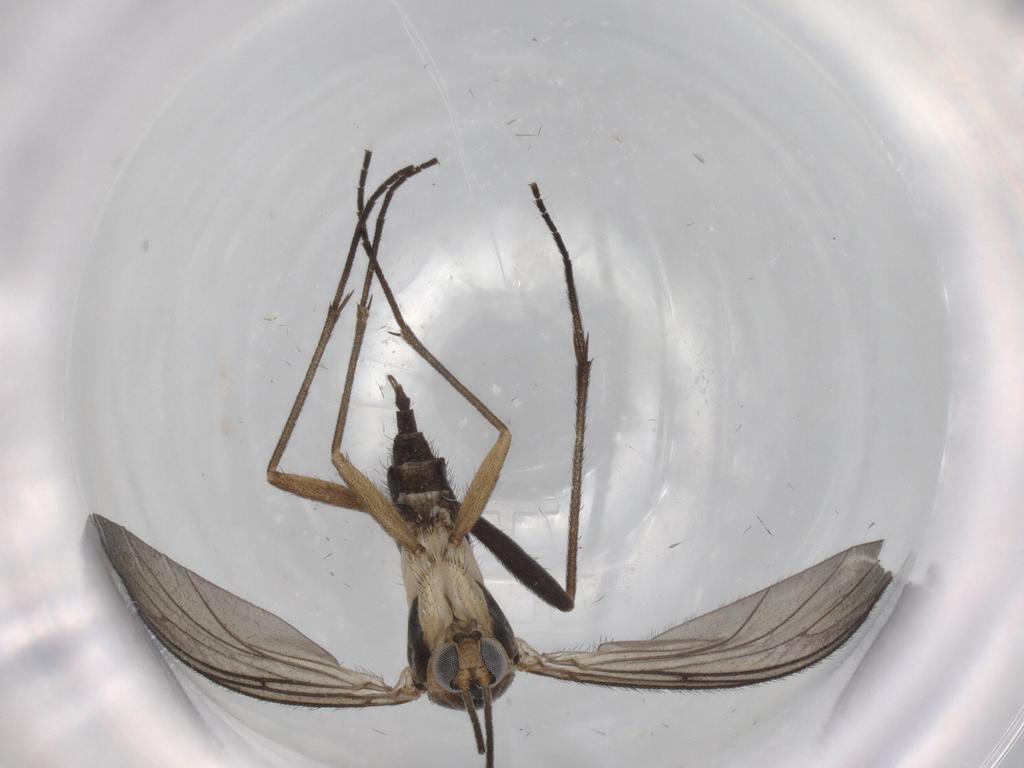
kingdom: Animalia
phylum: Arthropoda
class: Insecta
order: Diptera
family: Sciaridae
